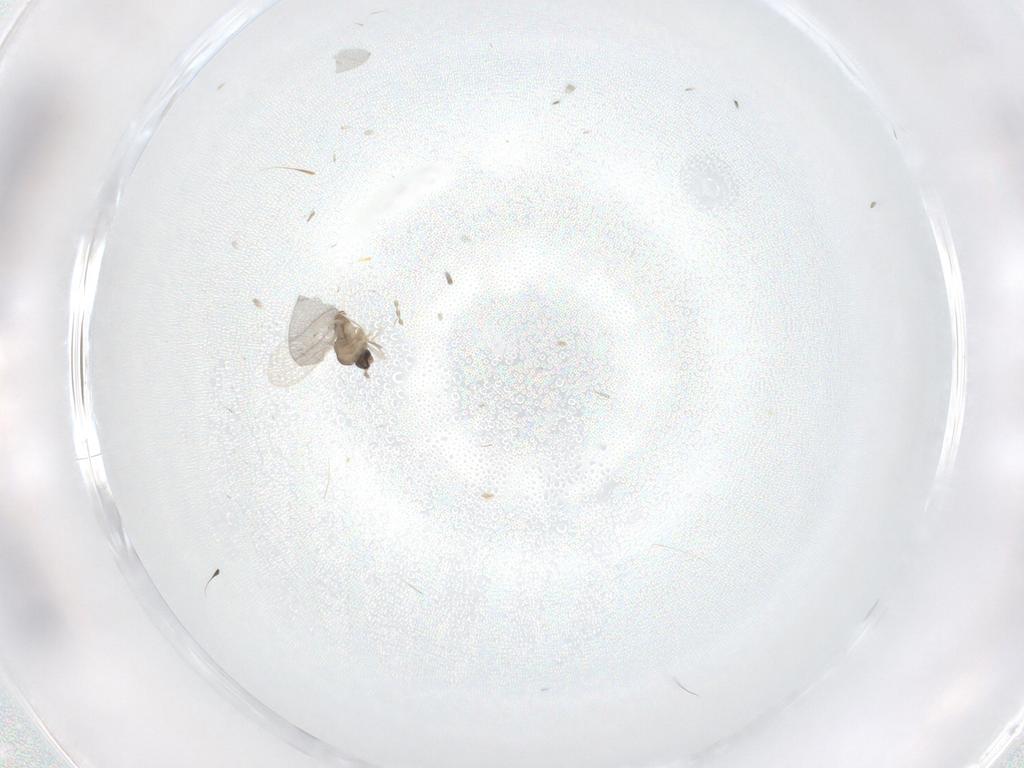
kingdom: Animalia
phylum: Arthropoda
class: Insecta
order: Diptera
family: Cecidomyiidae
